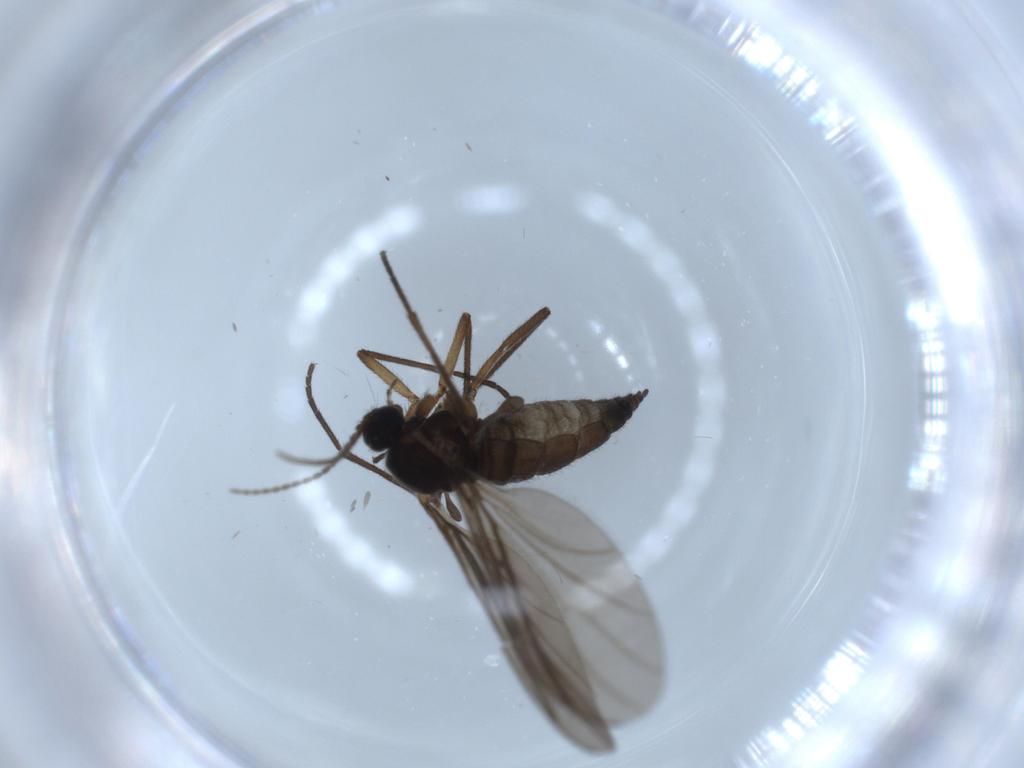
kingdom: Animalia
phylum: Arthropoda
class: Insecta
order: Diptera
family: Sciaridae
